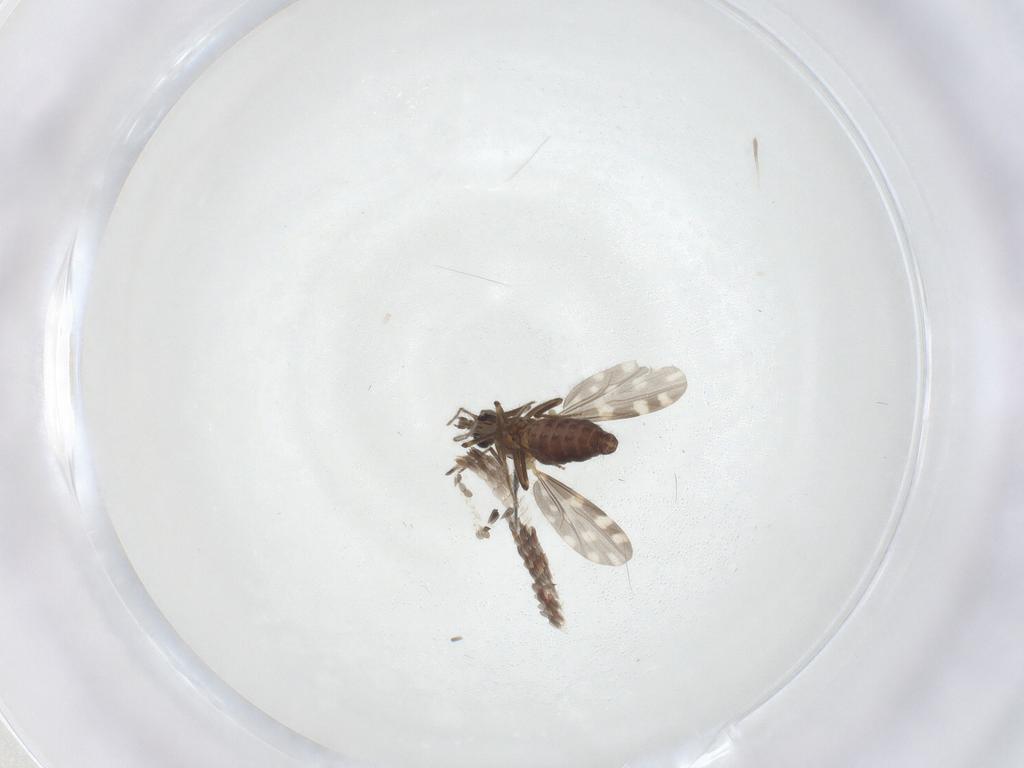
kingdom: Animalia
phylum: Arthropoda
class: Insecta
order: Diptera
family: Ceratopogonidae
